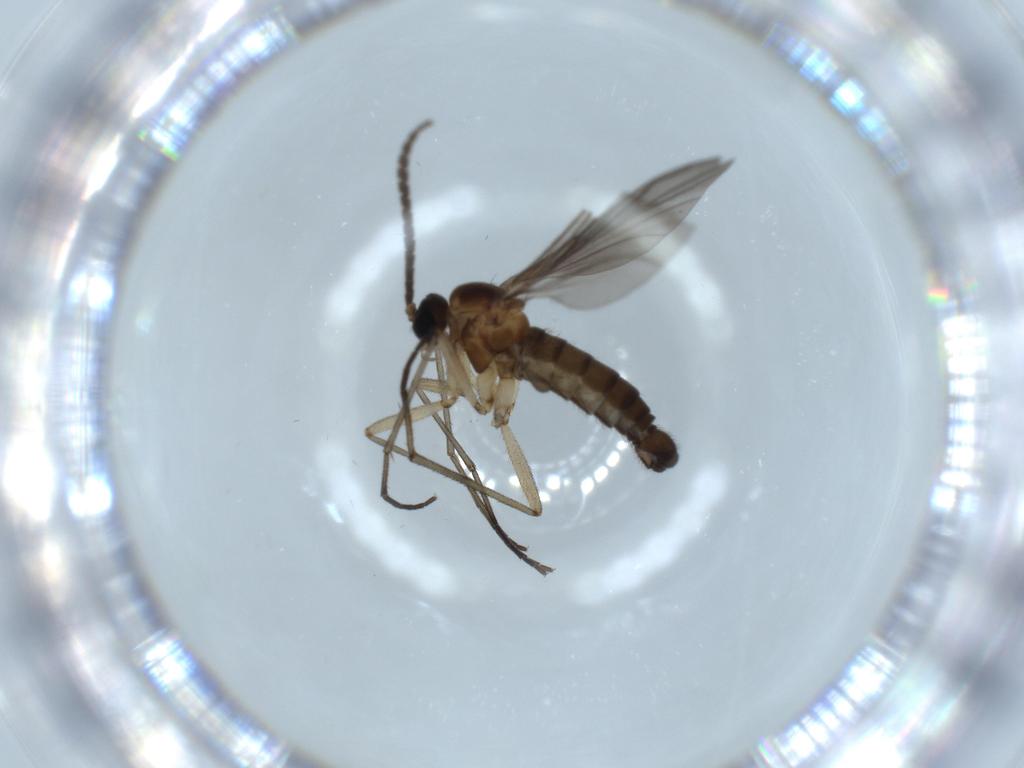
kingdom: Animalia
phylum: Arthropoda
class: Insecta
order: Diptera
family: Sciaridae
